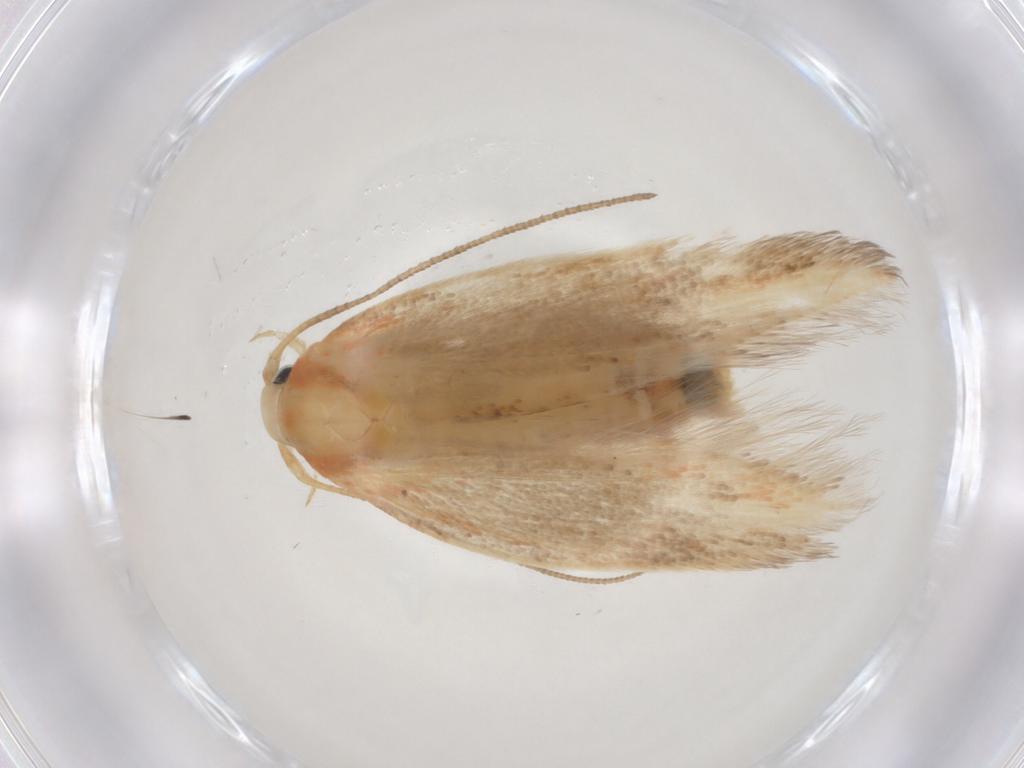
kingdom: Animalia
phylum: Arthropoda
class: Insecta
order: Lepidoptera
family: Geometridae
